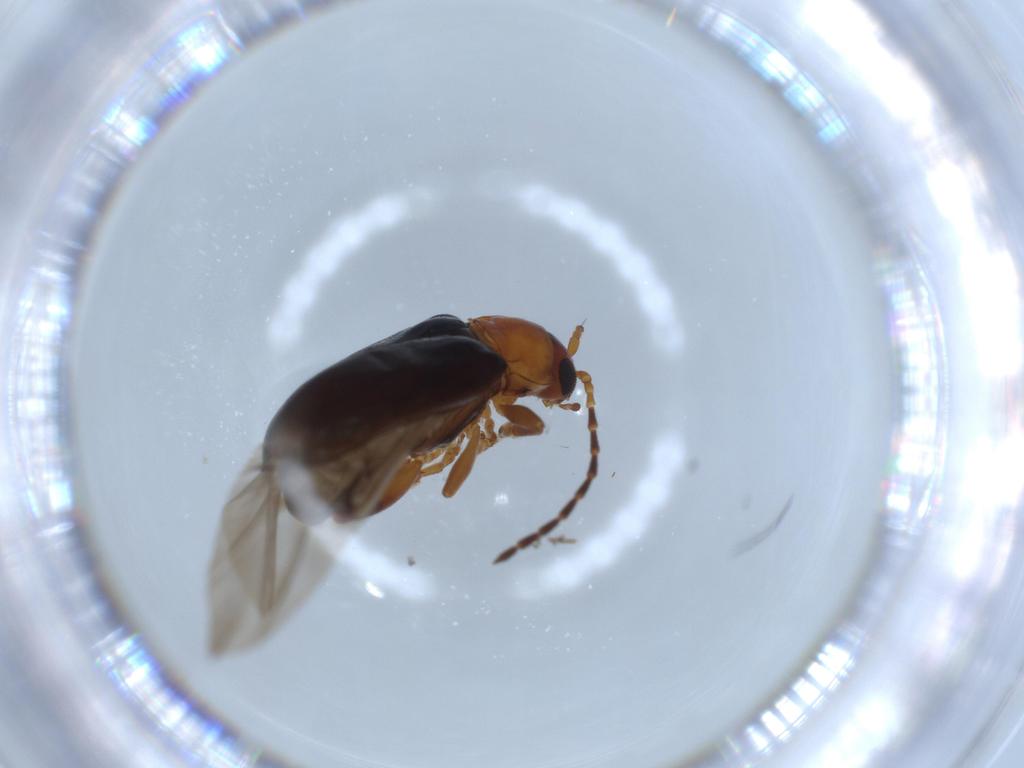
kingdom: Animalia
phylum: Arthropoda
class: Insecta
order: Coleoptera
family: Chrysomelidae
